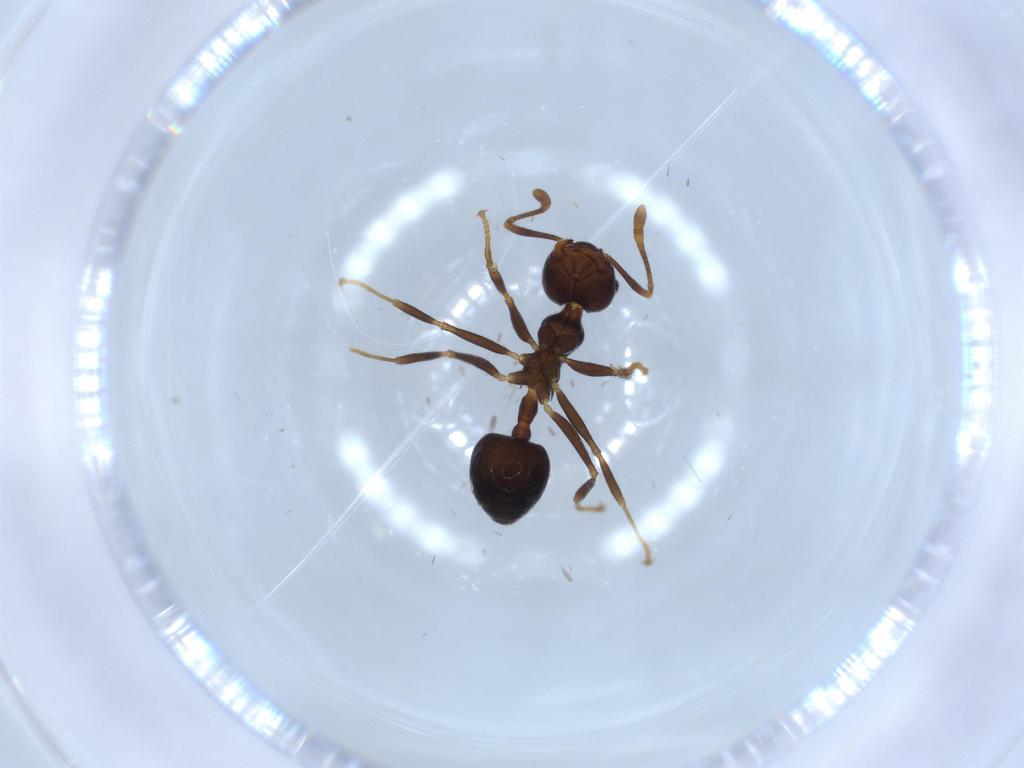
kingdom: Animalia
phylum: Arthropoda
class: Insecta
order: Hymenoptera
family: Formicidae
